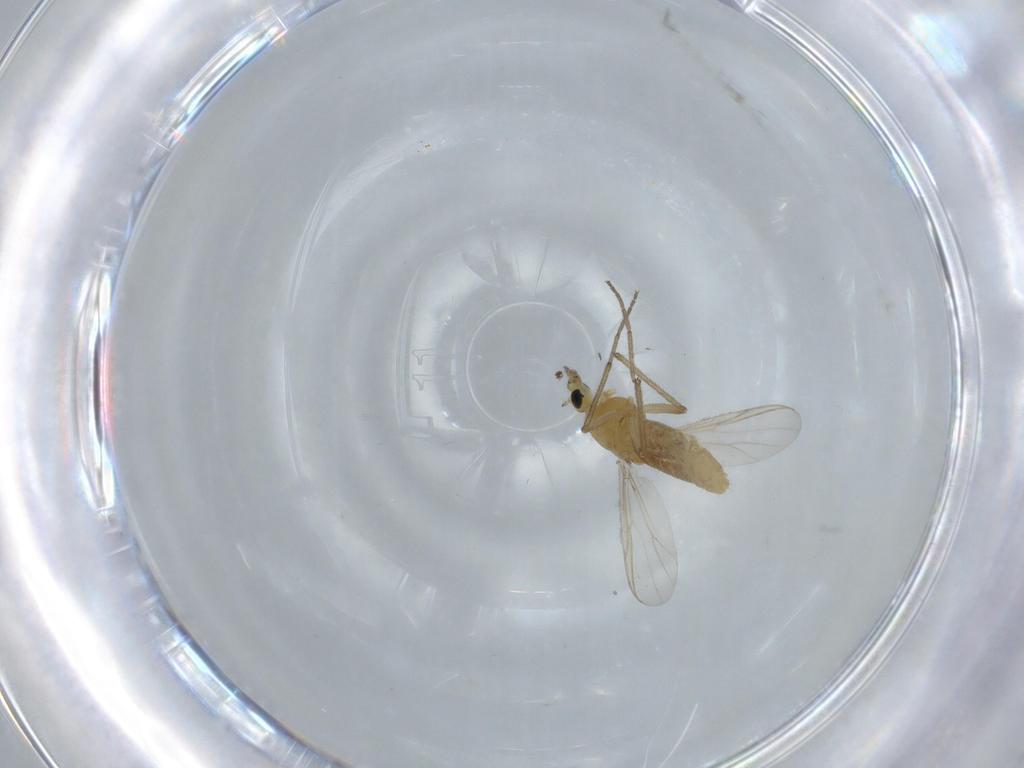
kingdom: Animalia
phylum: Arthropoda
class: Insecta
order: Diptera
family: Chironomidae
